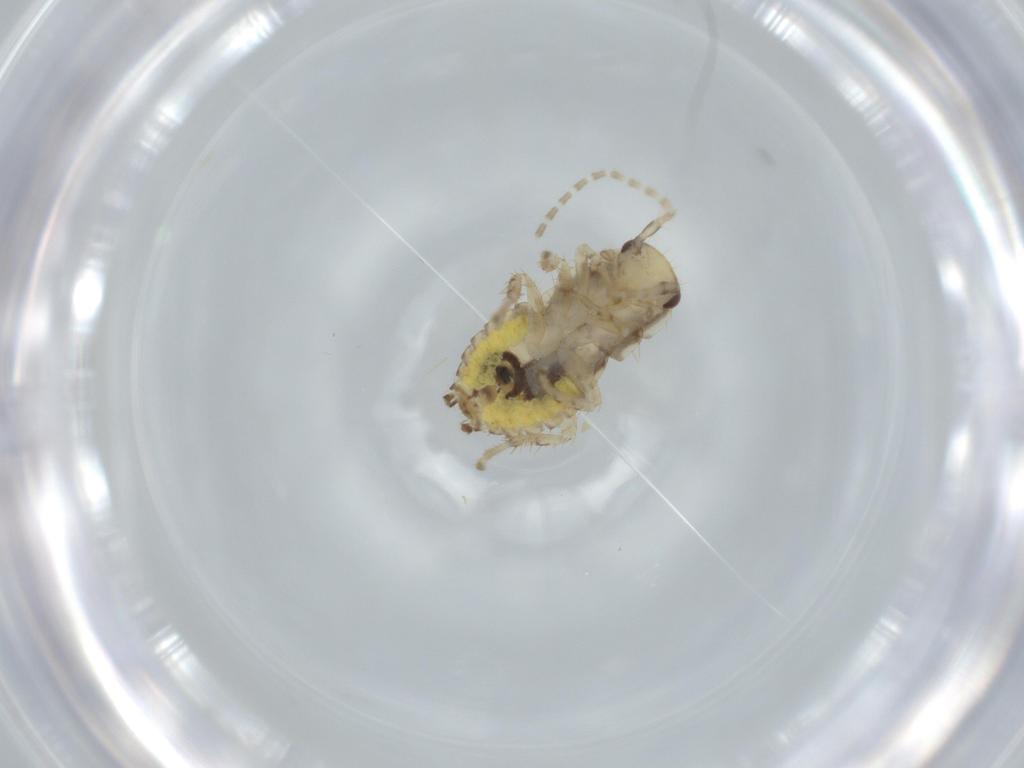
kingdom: Animalia
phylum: Arthropoda
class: Insecta
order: Blattodea
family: Ectobiidae
